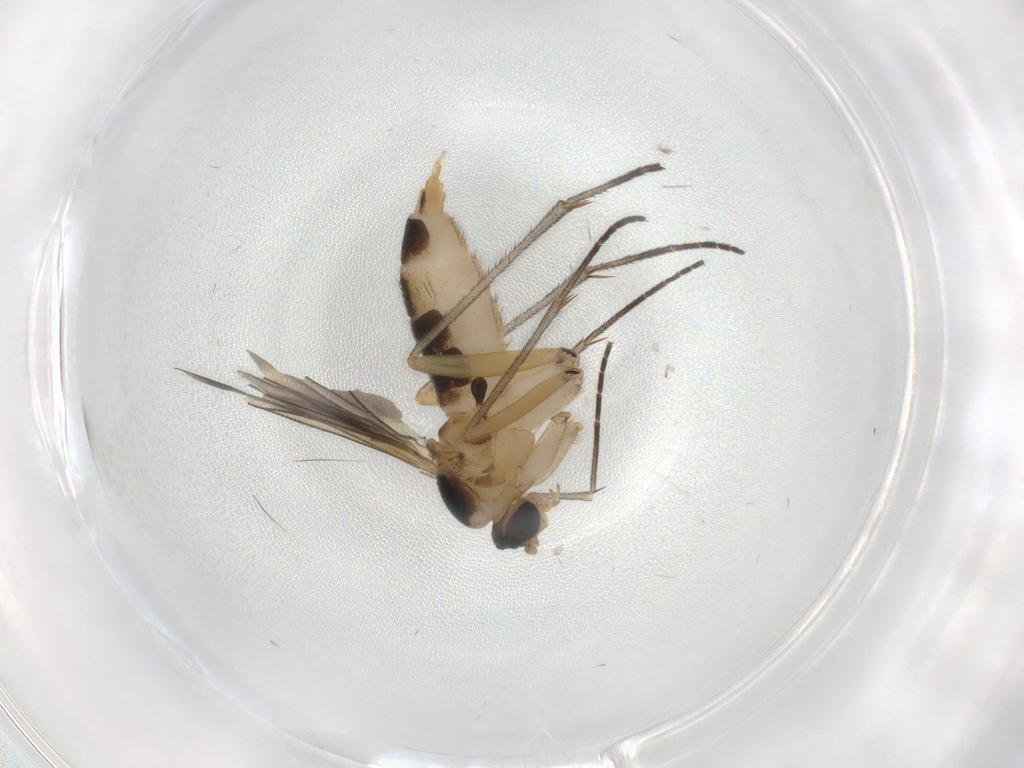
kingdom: Animalia
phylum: Arthropoda
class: Insecta
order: Diptera
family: Sciaridae
